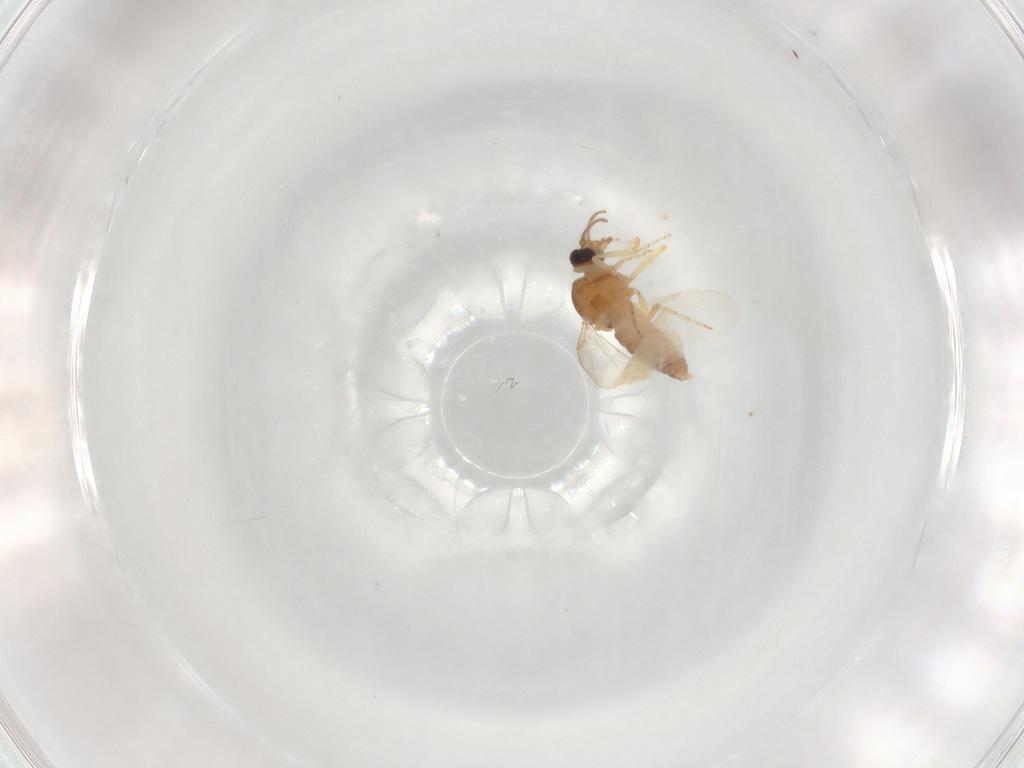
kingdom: Animalia
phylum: Arthropoda
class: Insecta
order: Diptera
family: Ceratopogonidae
